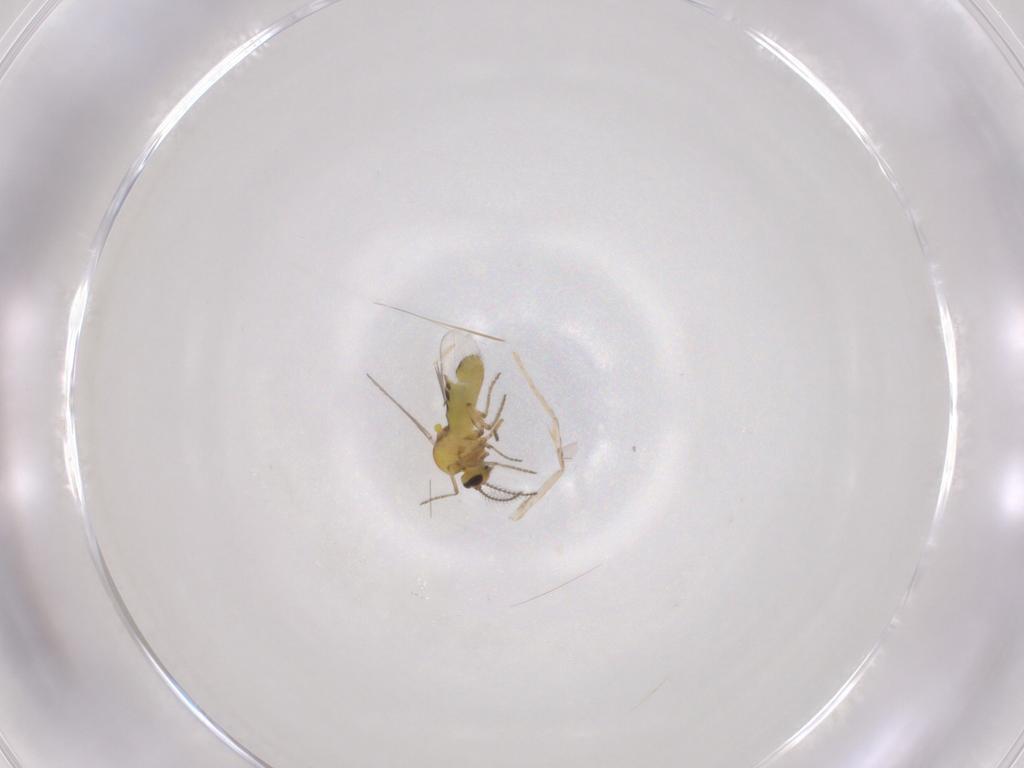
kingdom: Animalia
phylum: Arthropoda
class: Insecta
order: Diptera
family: Ceratopogonidae
